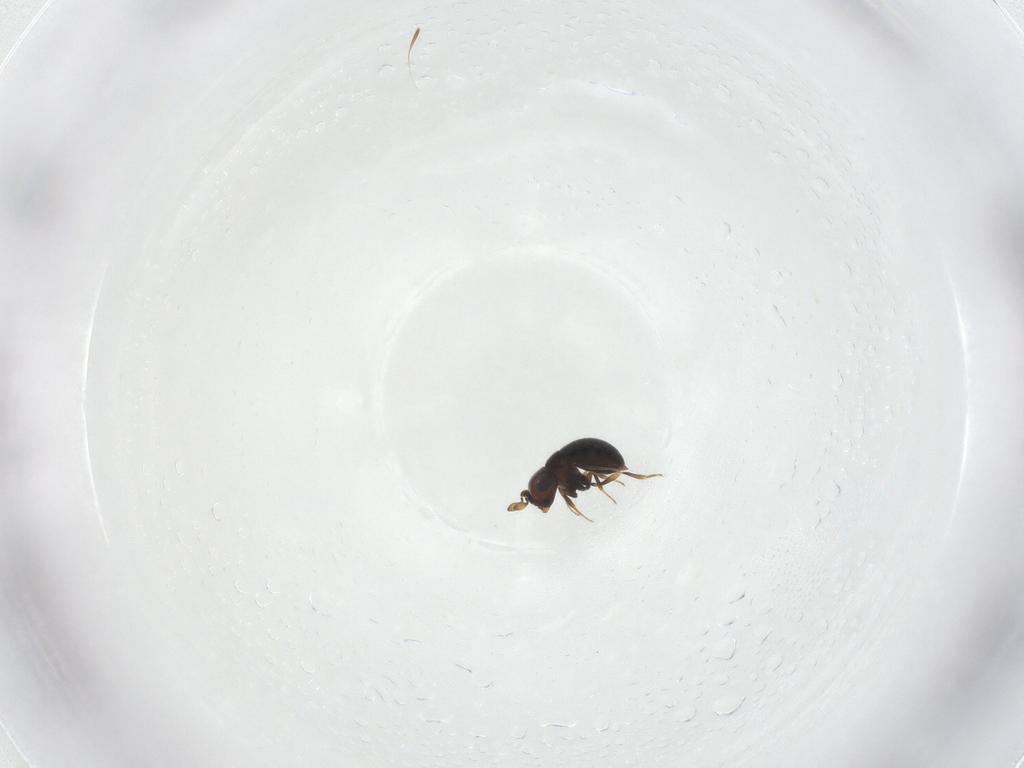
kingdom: Animalia
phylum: Arthropoda
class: Insecta
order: Hymenoptera
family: Scelionidae
